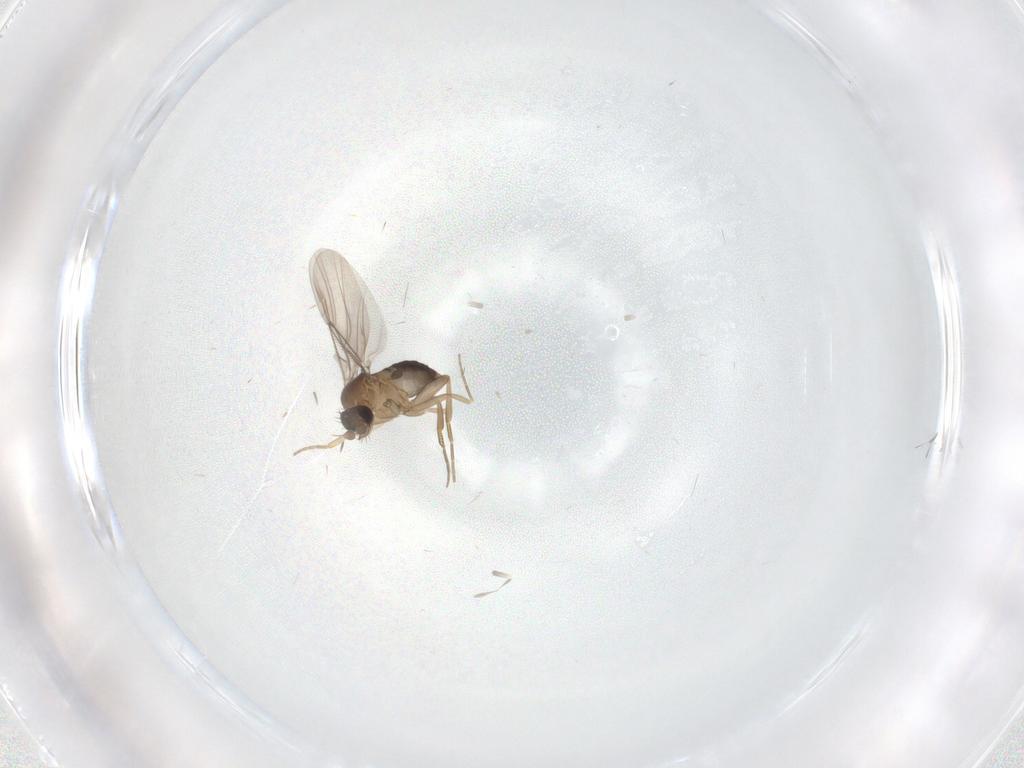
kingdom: Animalia
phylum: Arthropoda
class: Insecta
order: Diptera
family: Phoridae
